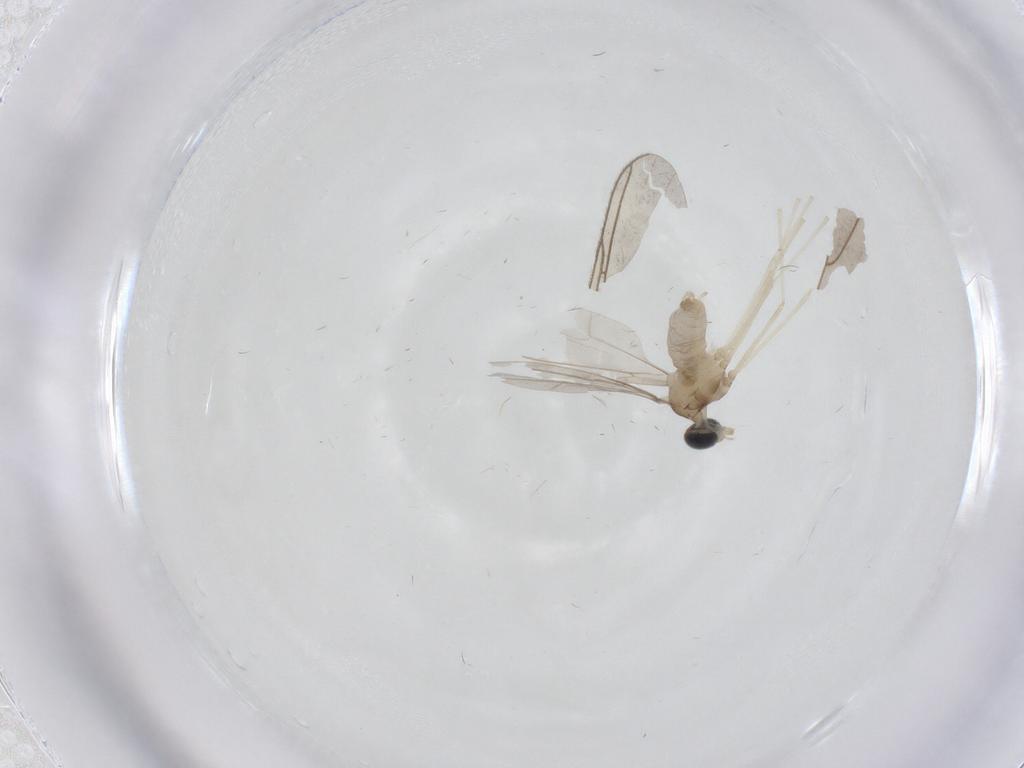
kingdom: Animalia
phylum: Arthropoda
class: Insecta
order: Diptera
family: Cecidomyiidae
